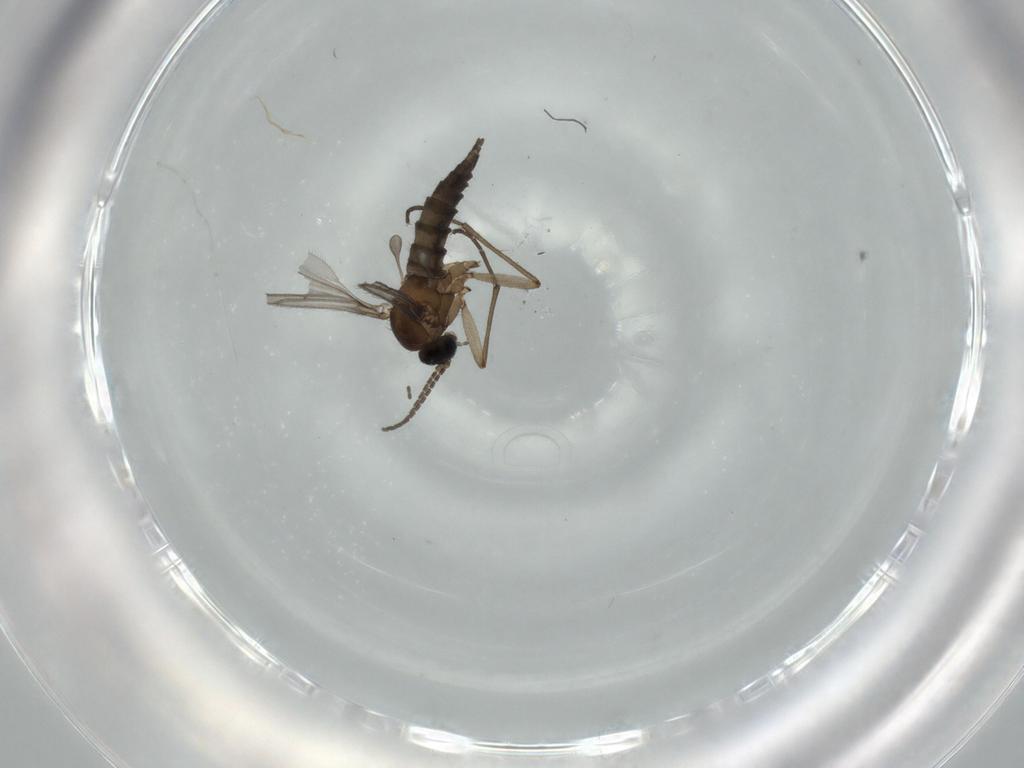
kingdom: Animalia
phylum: Arthropoda
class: Insecta
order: Diptera
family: Sciaridae
